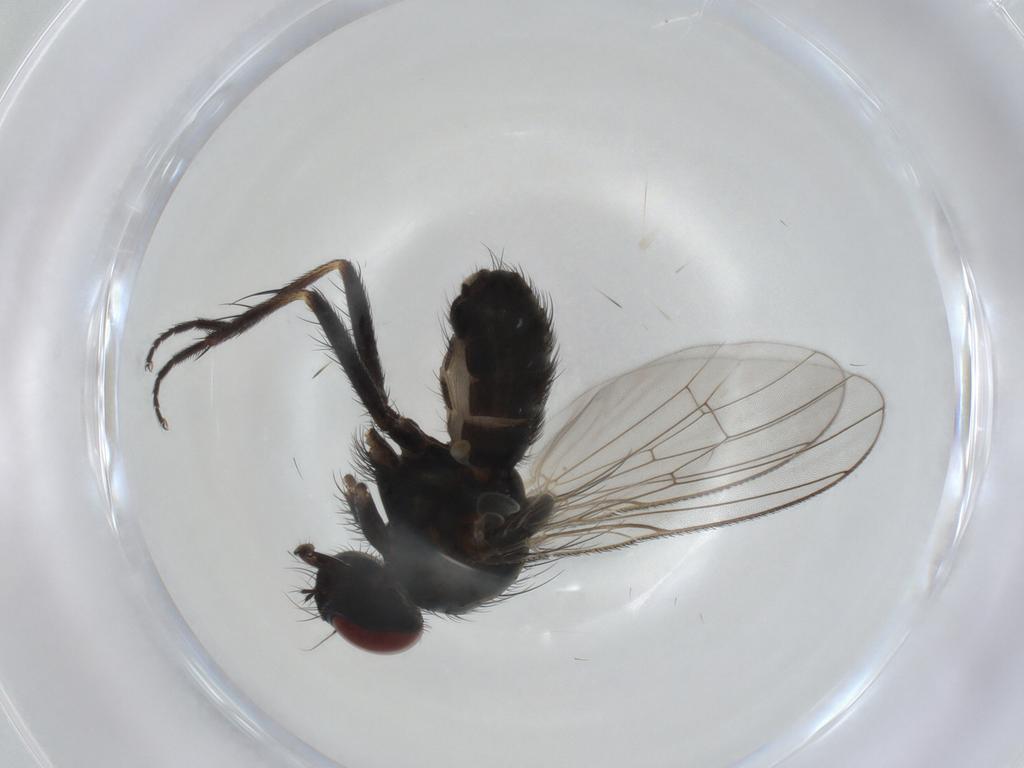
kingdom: Animalia
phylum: Arthropoda
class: Insecta
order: Diptera
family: Muscidae
